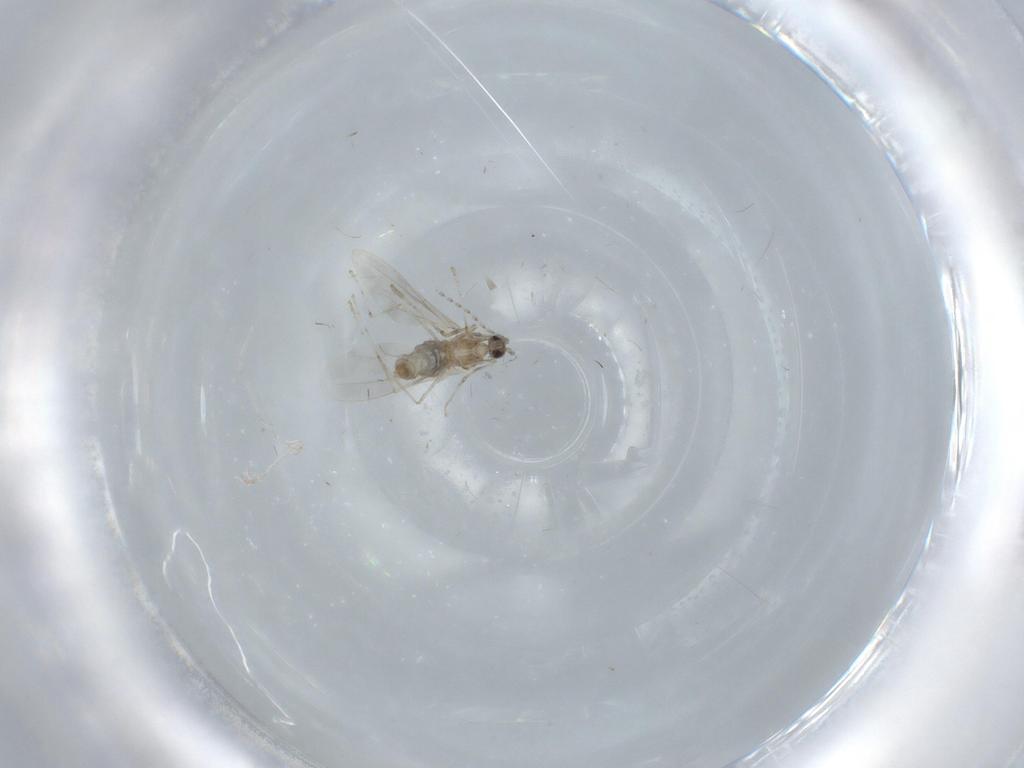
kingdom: Animalia
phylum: Arthropoda
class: Insecta
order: Diptera
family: Cecidomyiidae
